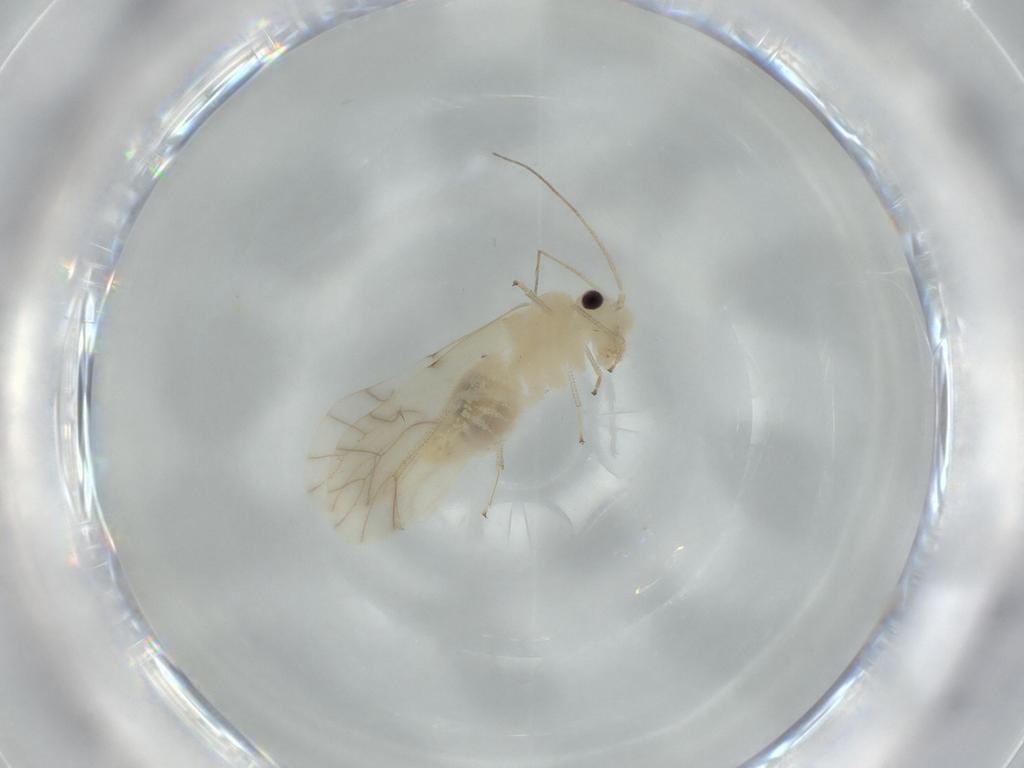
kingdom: Animalia
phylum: Arthropoda
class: Insecta
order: Psocodea
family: Caeciliusidae
